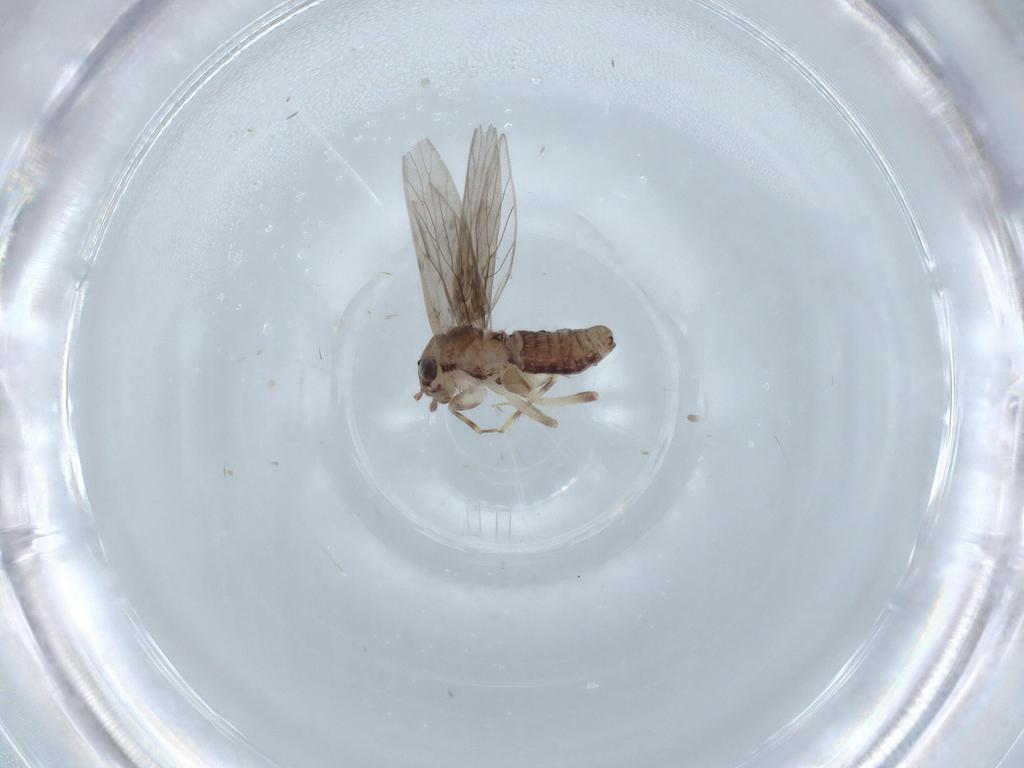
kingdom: Animalia
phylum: Arthropoda
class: Insecta
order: Psocodea
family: Lepidopsocidae
